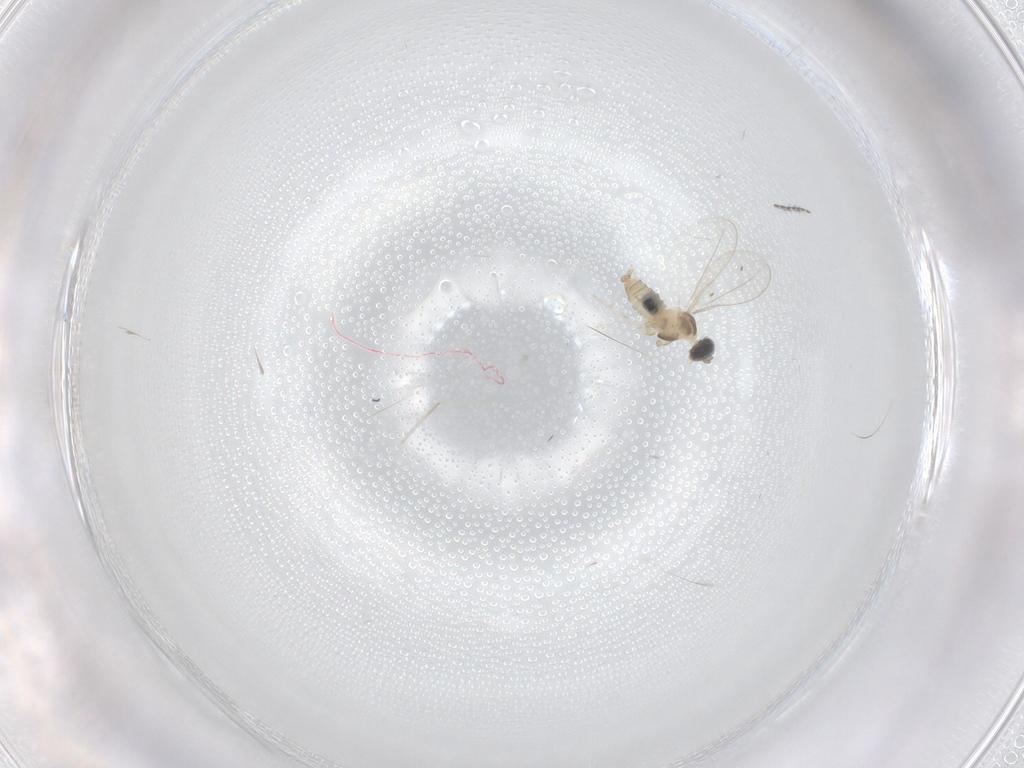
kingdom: Animalia
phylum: Arthropoda
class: Insecta
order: Diptera
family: Cecidomyiidae
